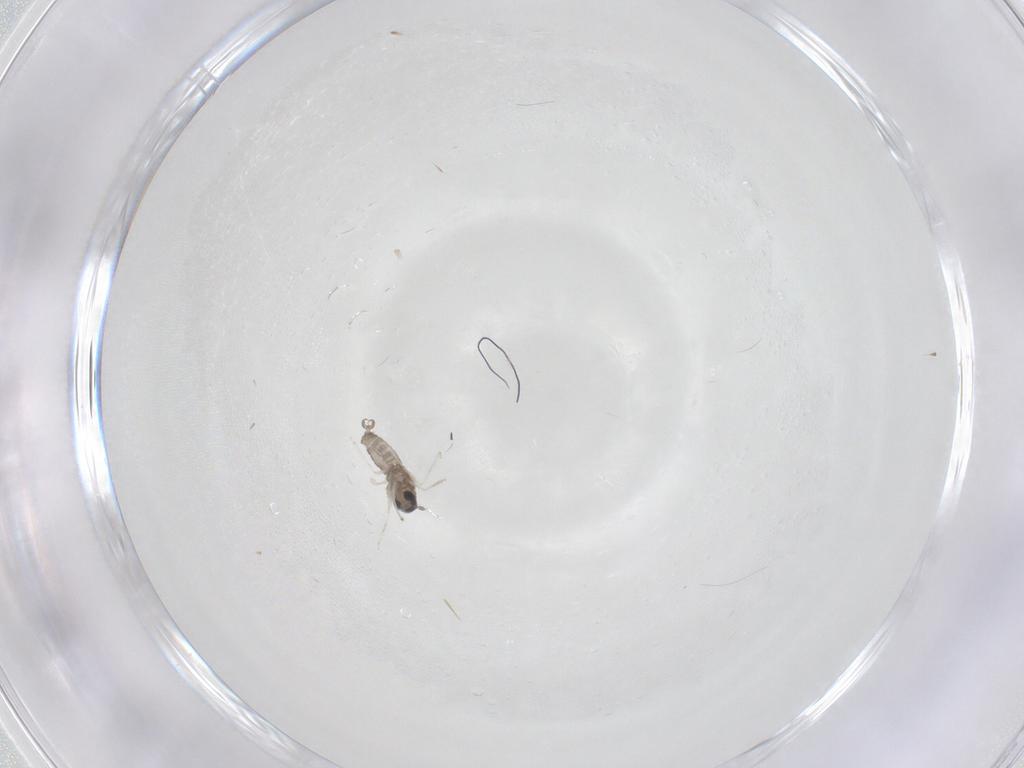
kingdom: Animalia
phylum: Arthropoda
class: Insecta
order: Diptera
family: Cecidomyiidae
